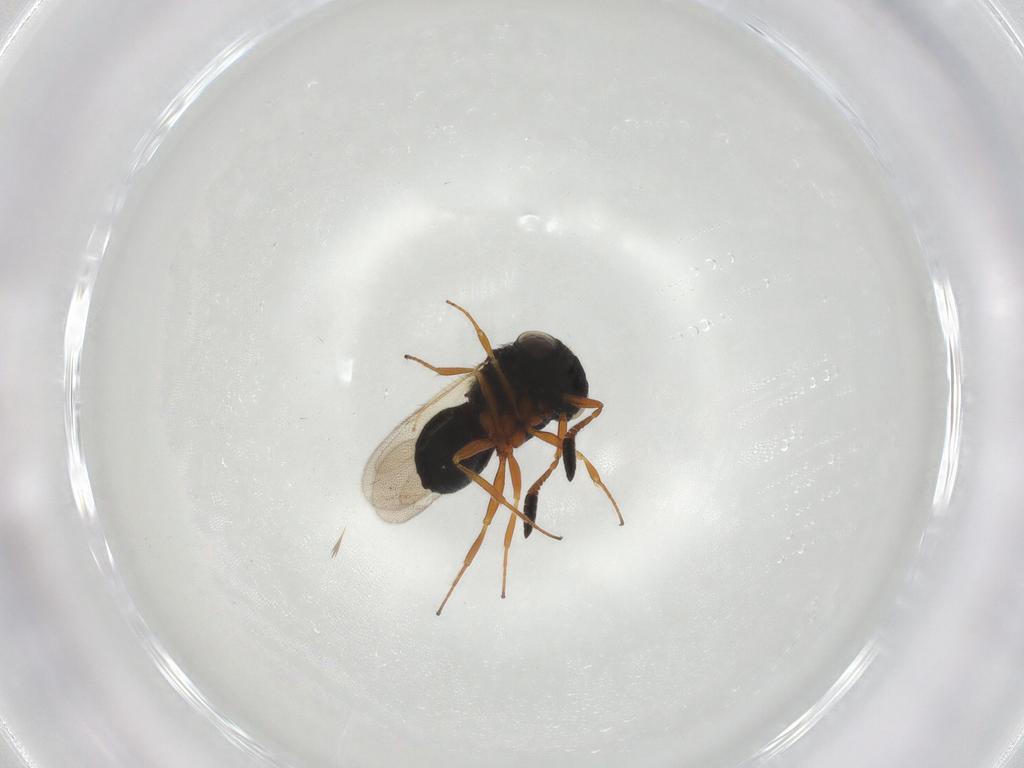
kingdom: Animalia
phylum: Arthropoda
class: Insecta
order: Hymenoptera
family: Scelionidae
